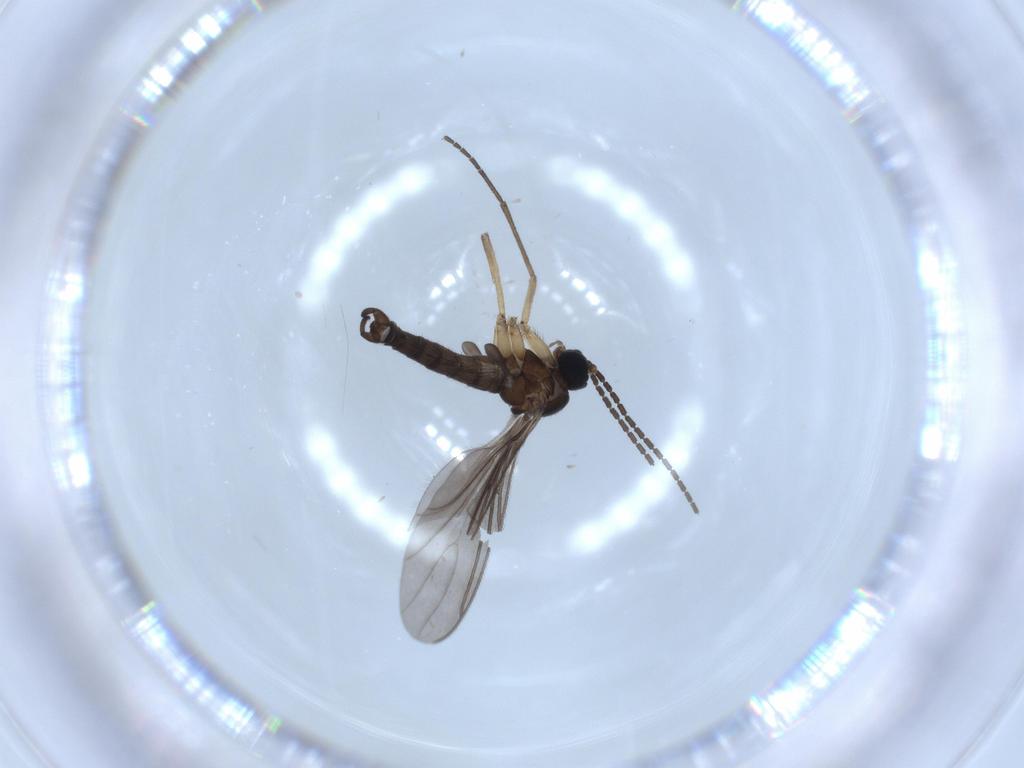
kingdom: Animalia
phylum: Arthropoda
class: Insecta
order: Diptera
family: Sciaridae
